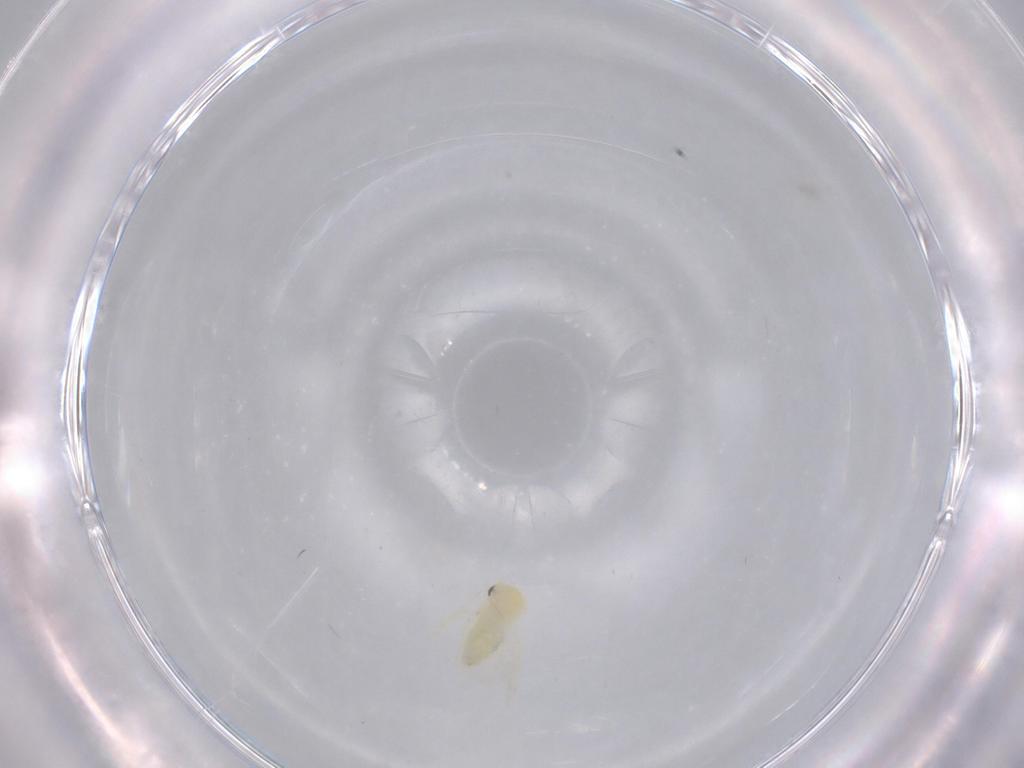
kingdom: Animalia
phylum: Arthropoda
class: Insecta
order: Hemiptera
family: Aleyrodidae
